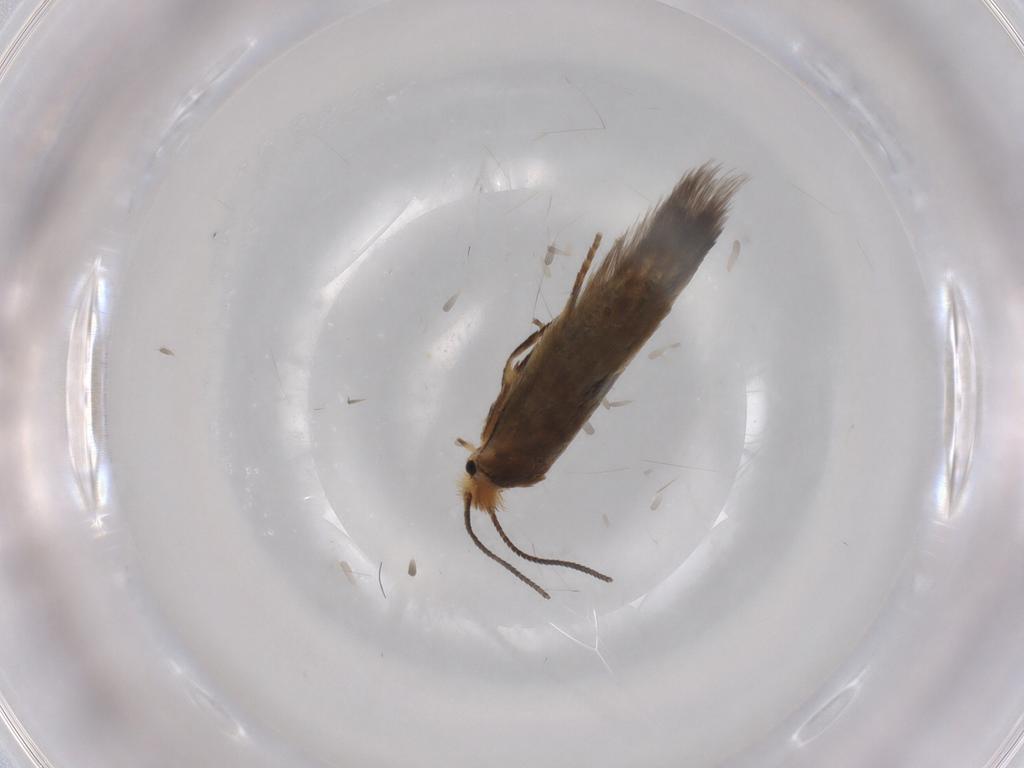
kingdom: Animalia
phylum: Arthropoda
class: Insecta
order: Lepidoptera
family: Nepticulidae
